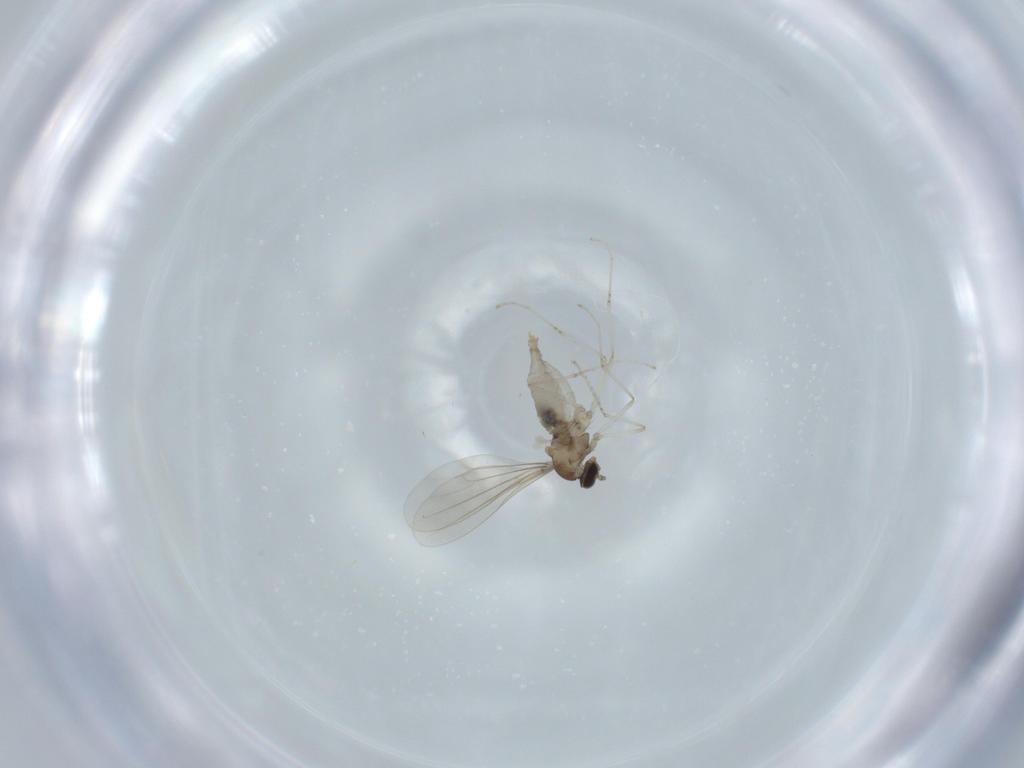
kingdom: Animalia
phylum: Arthropoda
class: Insecta
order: Diptera
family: Cecidomyiidae
